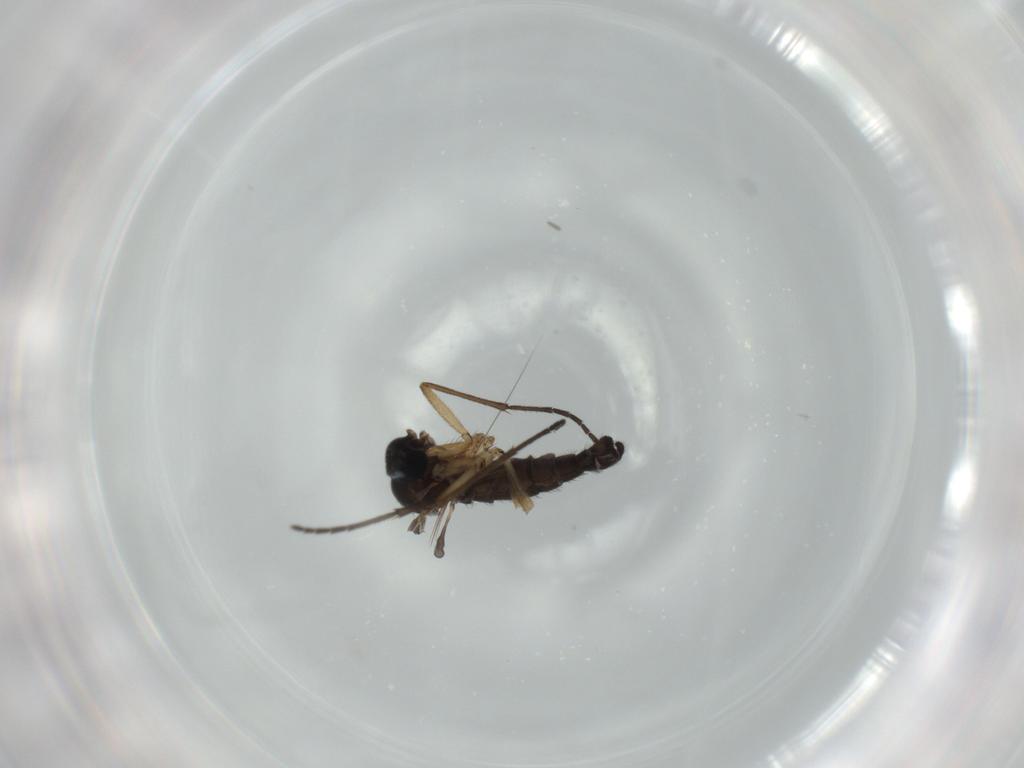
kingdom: Animalia
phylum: Arthropoda
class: Insecta
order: Diptera
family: Sciaridae
